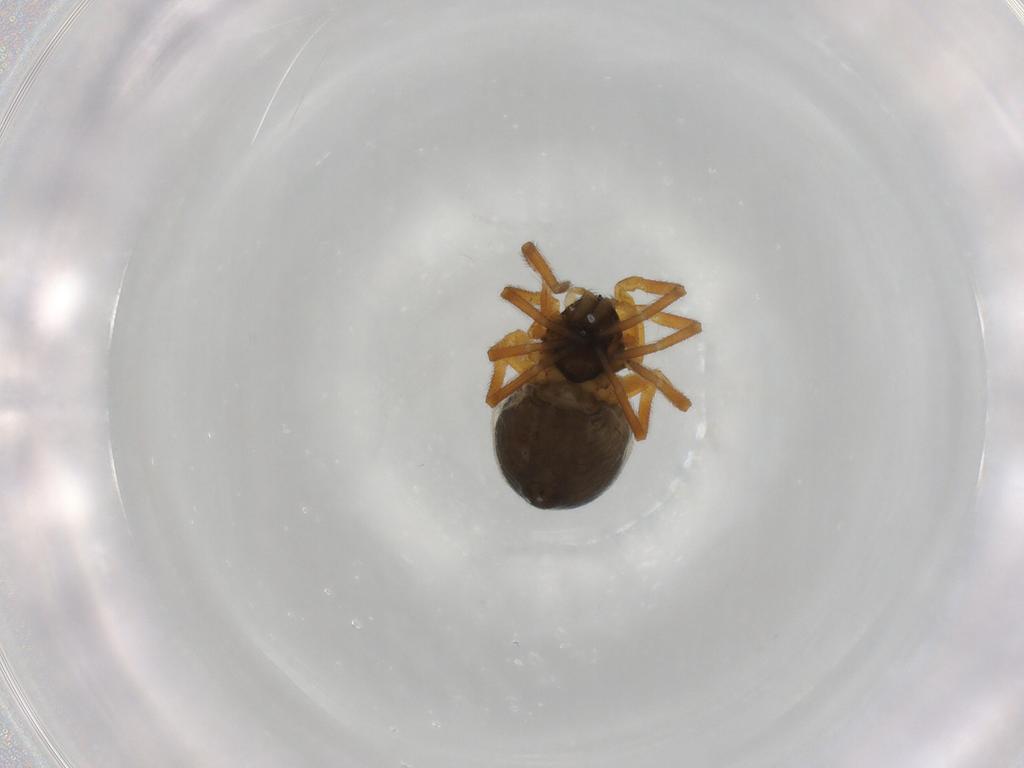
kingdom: Animalia
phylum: Arthropoda
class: Arachnida
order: Araneae
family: Linyphiidae
